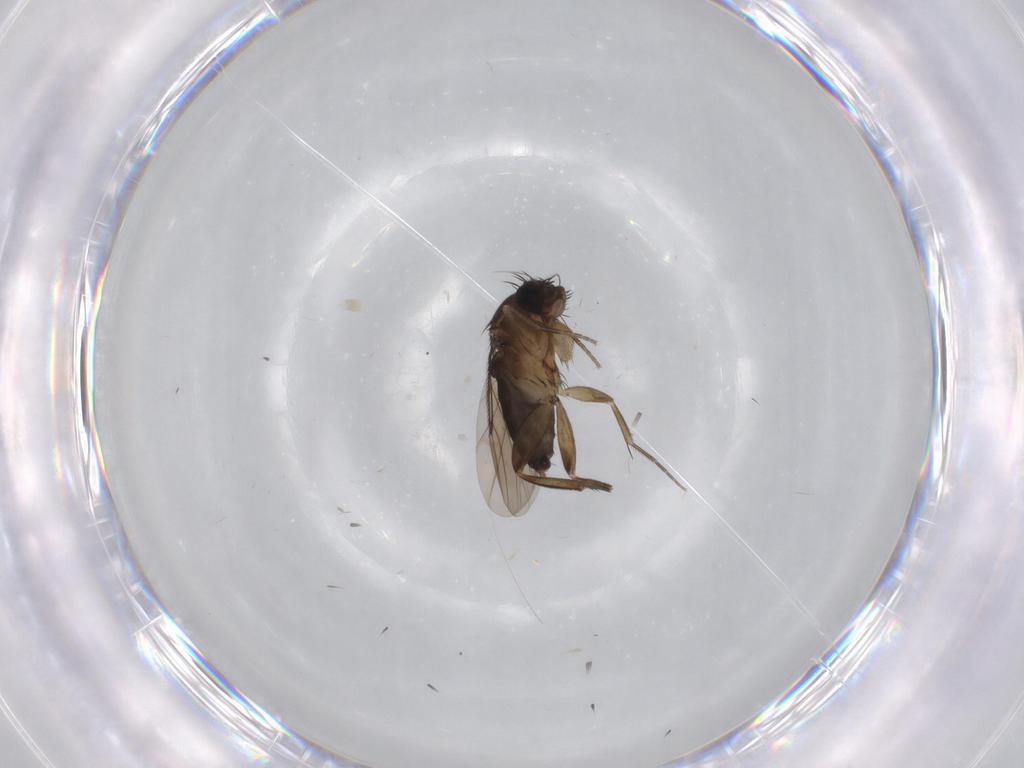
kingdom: Animalia
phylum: Arthropoda
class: Insecta
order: Diptera
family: Phoridae
